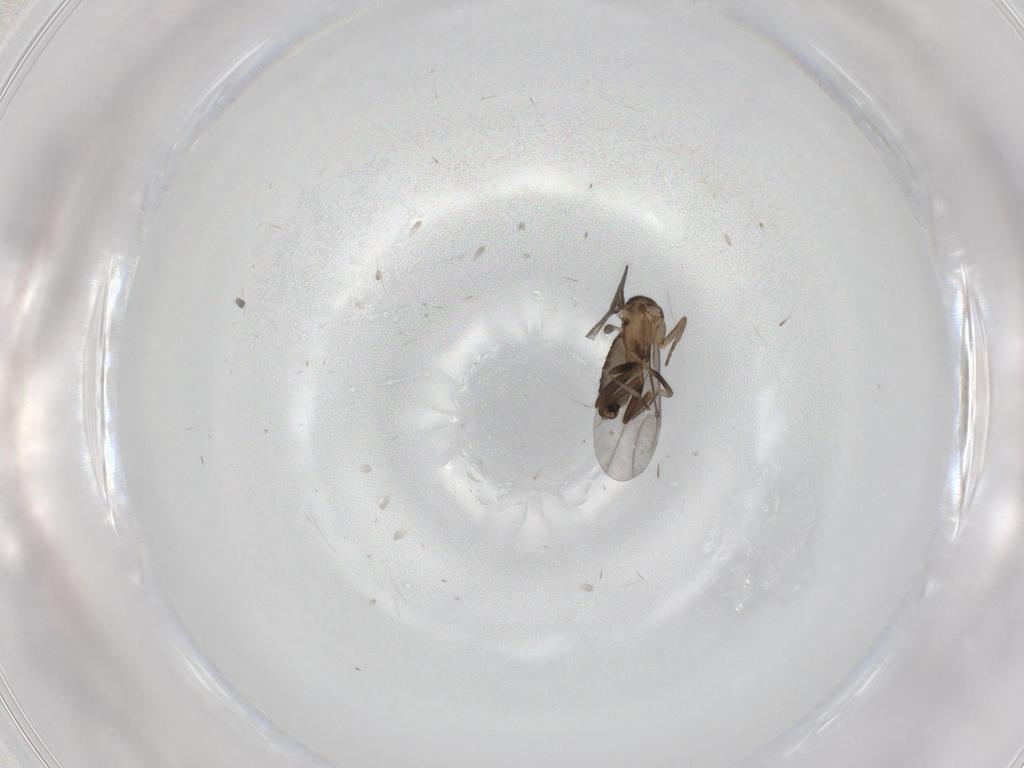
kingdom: Animalia
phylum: Arthropoda
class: Insecta
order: Diptera
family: Phoridae
